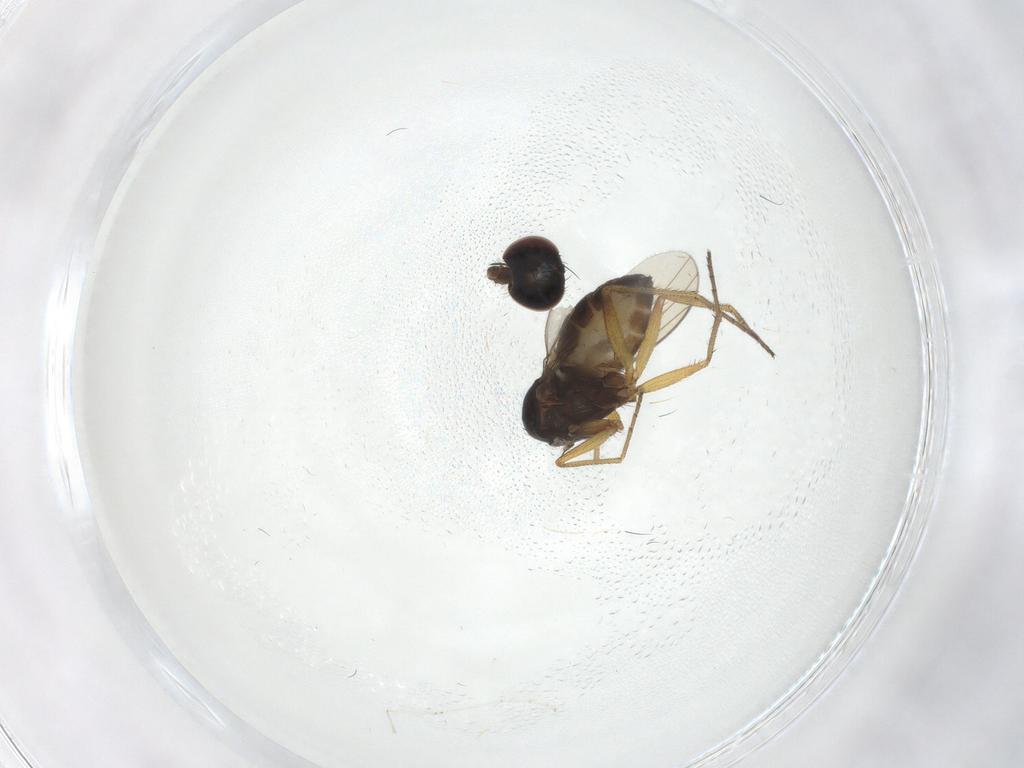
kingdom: Animalia
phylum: Arthropoda
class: Insecta
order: Diptera
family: Dolichopodidae
